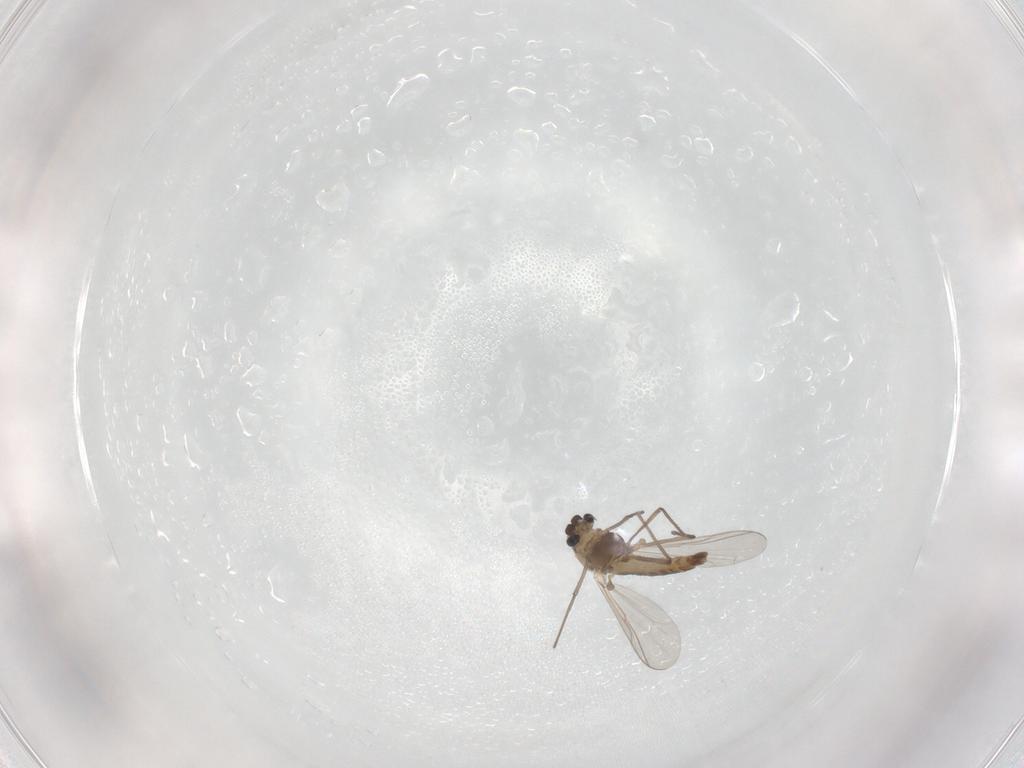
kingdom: Animalia
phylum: Arthropoda
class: Insecta
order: Diptera
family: Chironomidae
